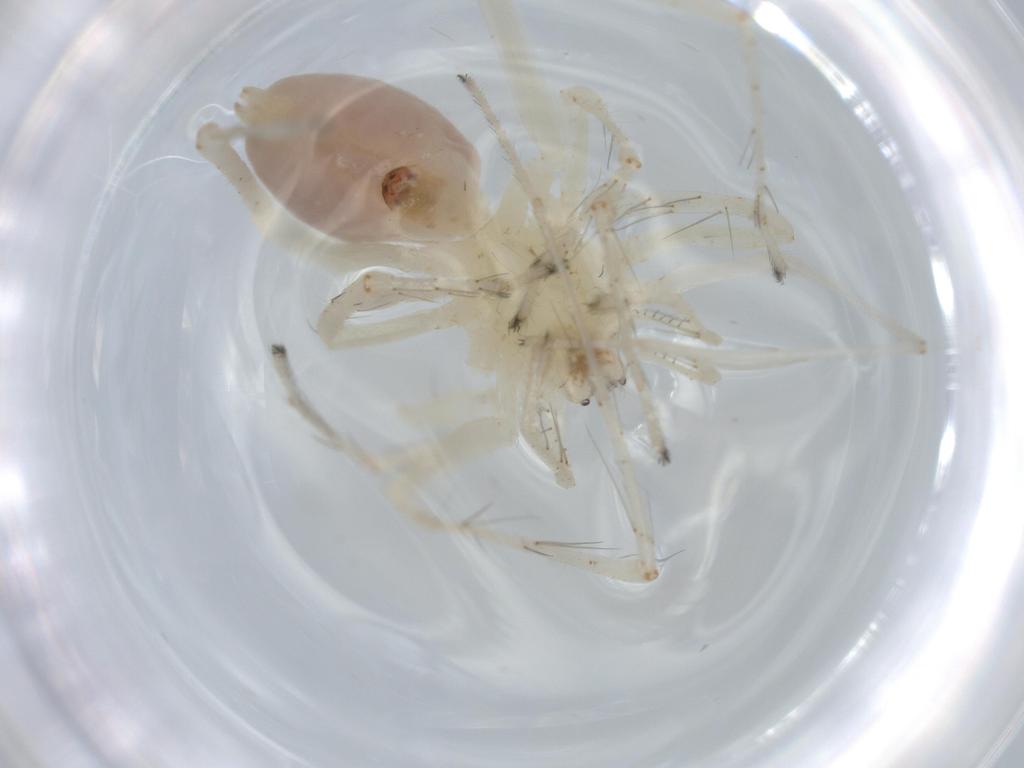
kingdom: Animalia
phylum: Arthropoda
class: Arachnida
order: Araneae
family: Anyphaenidae
